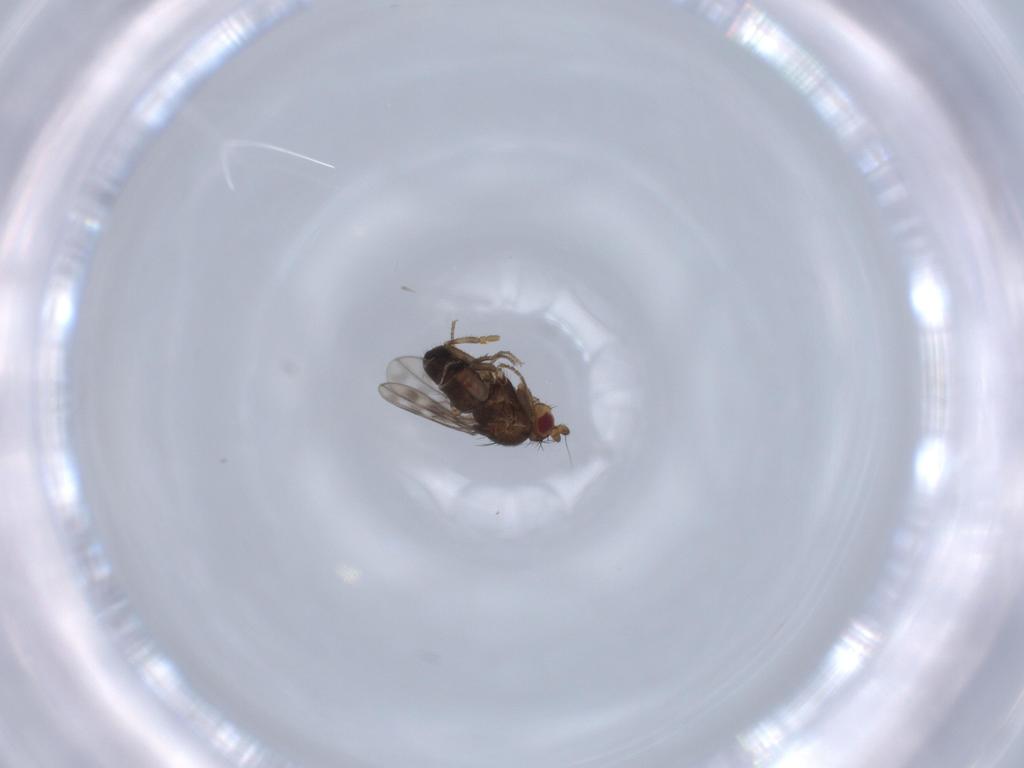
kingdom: Animalia
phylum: Arthropoda
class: Insecta
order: Diptera
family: Sphaeroceridae
